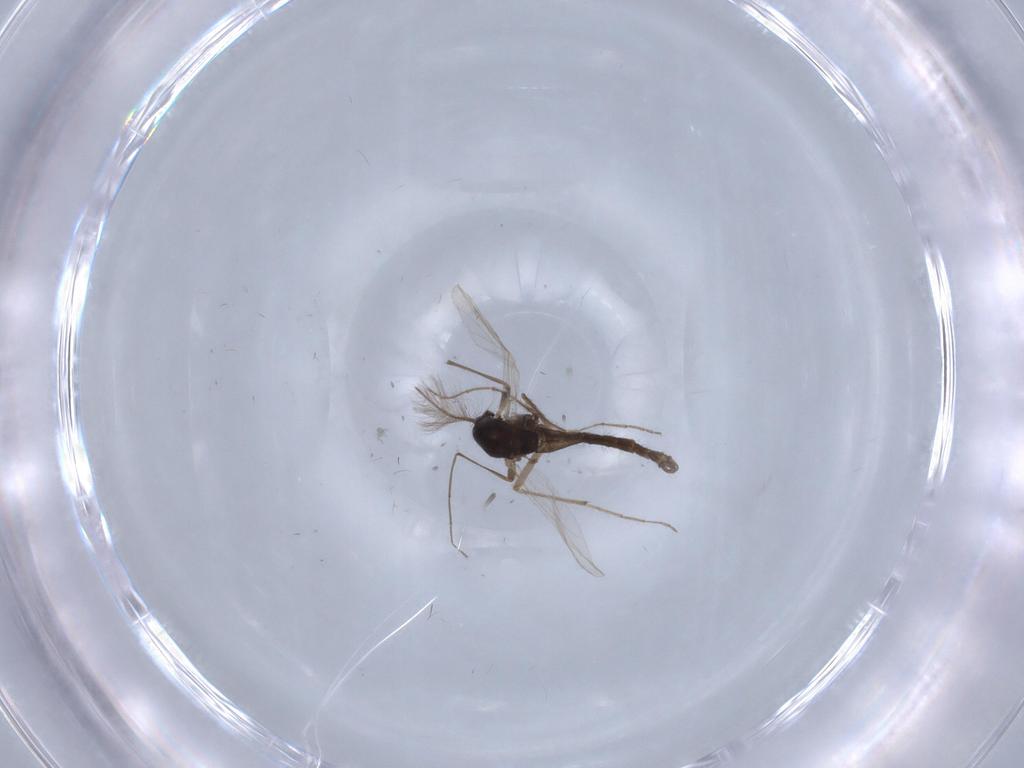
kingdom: Animalia
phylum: Arthropoda
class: Insecta
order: Diptera
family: Chironomidae
